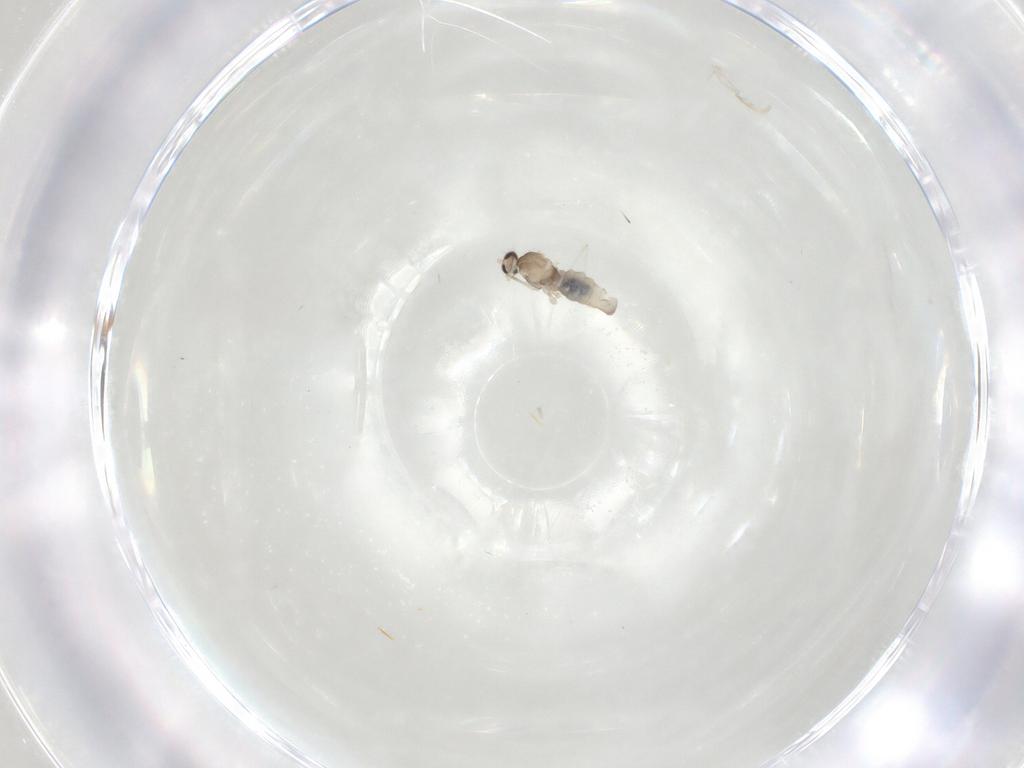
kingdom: Animalia
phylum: Arthropoda
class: Insecta
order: Diptera
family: Cecidomyiidae
